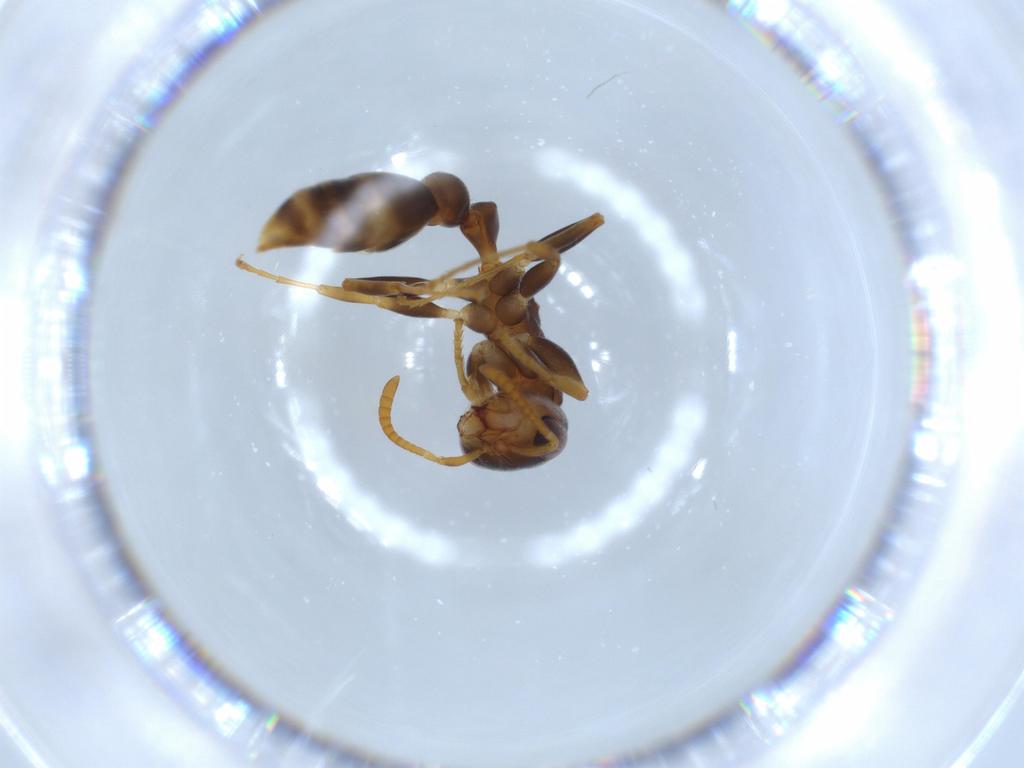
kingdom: Animalia
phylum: Arthropoda
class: Insecta
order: Hymenoptera
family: Formicidae
